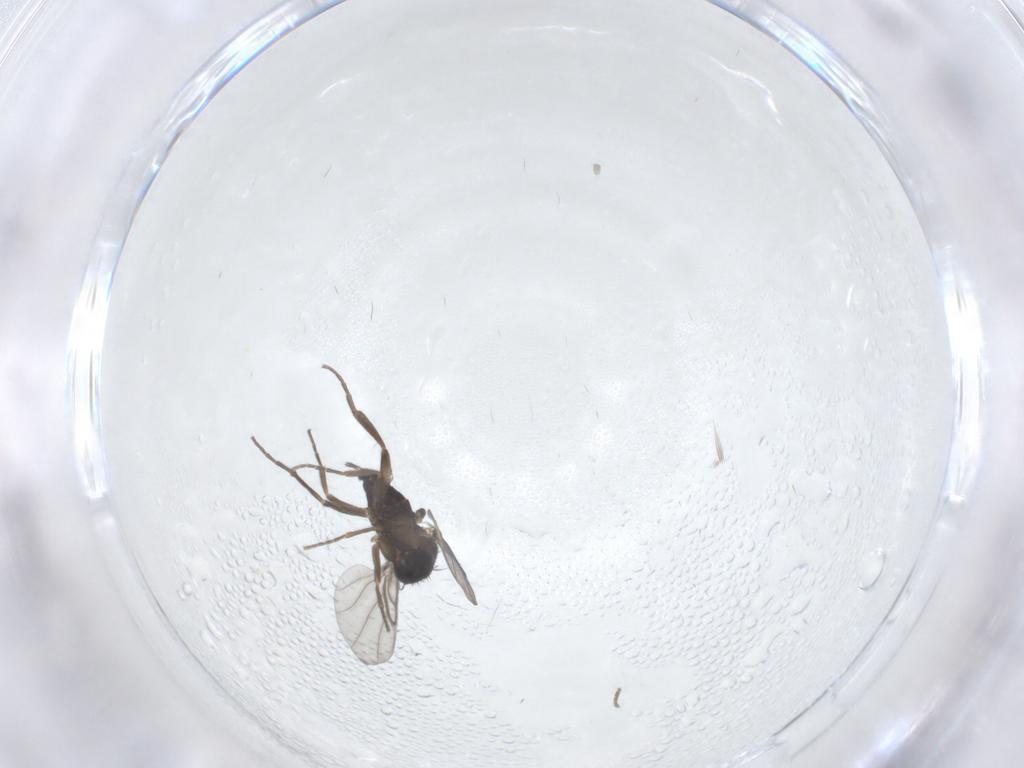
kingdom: Animalia
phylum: Arthropoda
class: Insecta
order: Diptera
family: Phoridae
